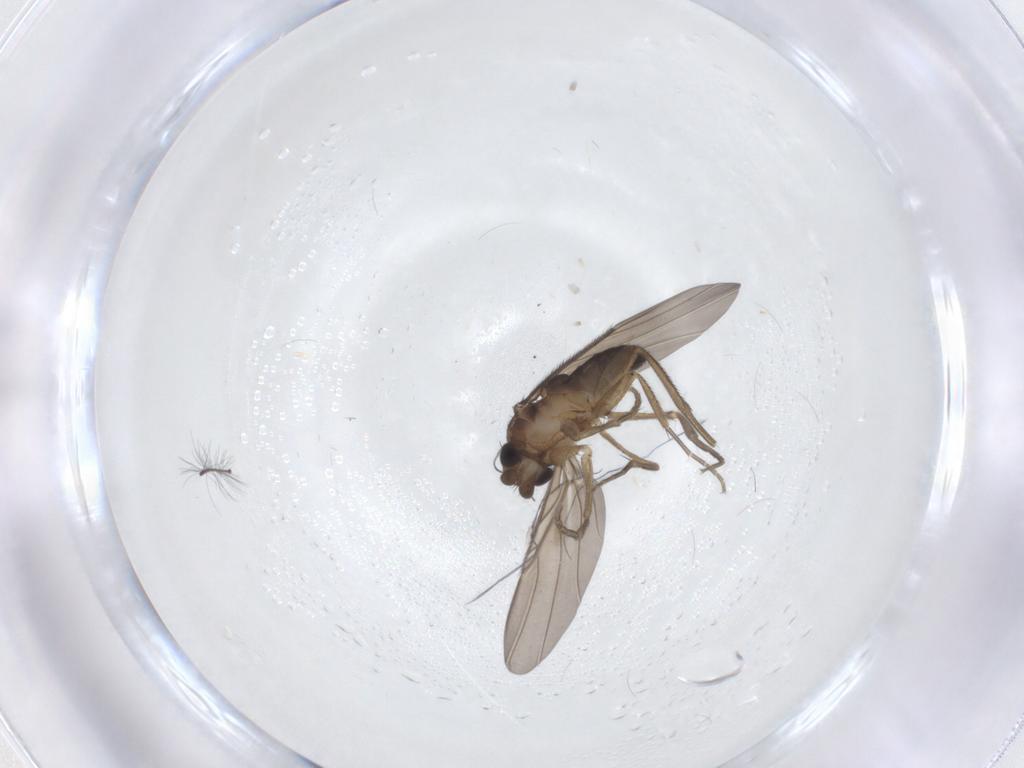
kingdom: Animalia
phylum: Arthropoda
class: Insecta
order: Diptera
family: Phoridae
